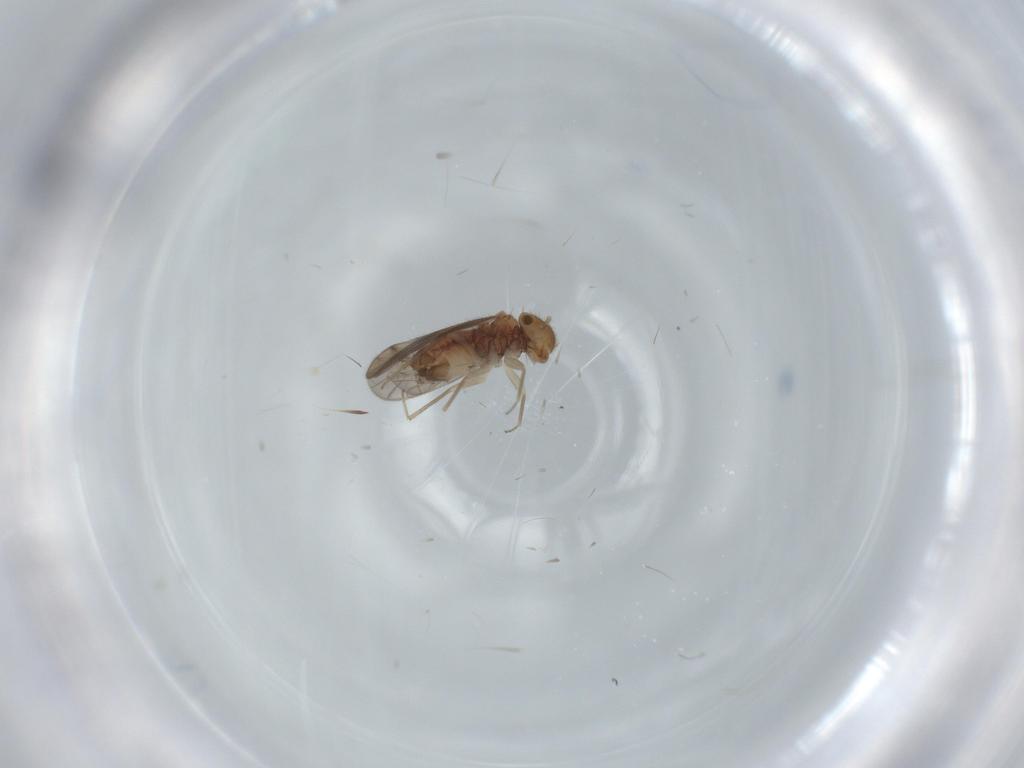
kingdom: Animalia
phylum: Arthropoda
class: Insecta
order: Psocodea
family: Ectopsocidae
